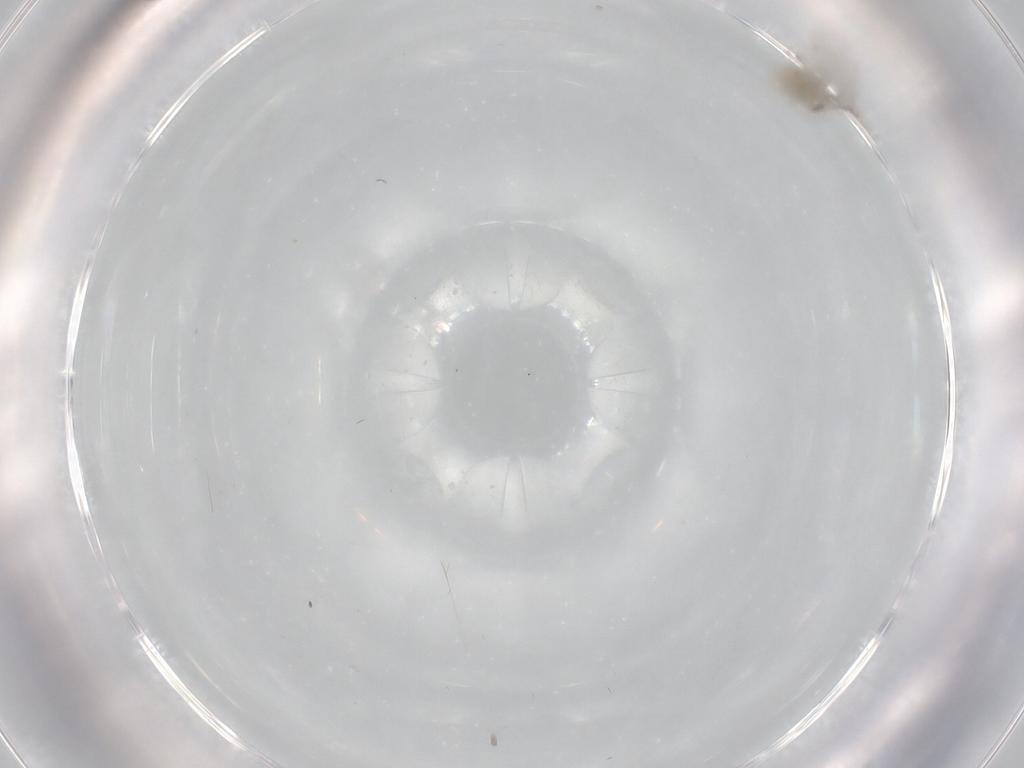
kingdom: Animalia
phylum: Arthropoda
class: Insecta
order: Diptera
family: Cecidomyiidae
